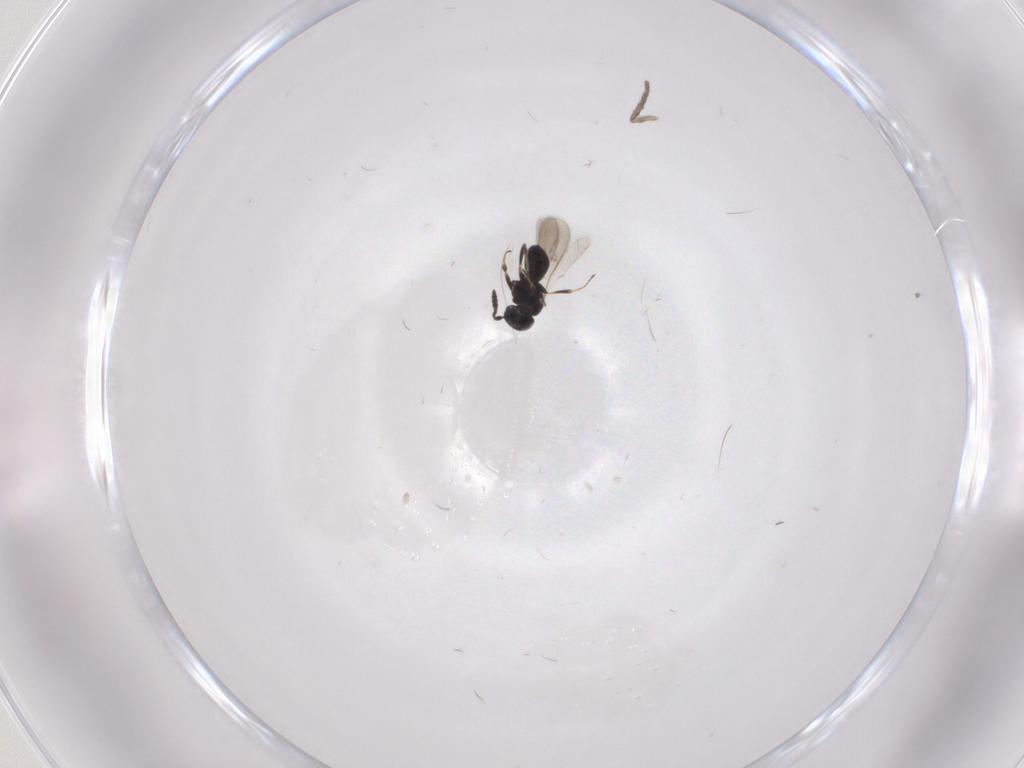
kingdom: Animalia
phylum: Arthropoda
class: Insecta
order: Hymenoptera
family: Scelionidae
